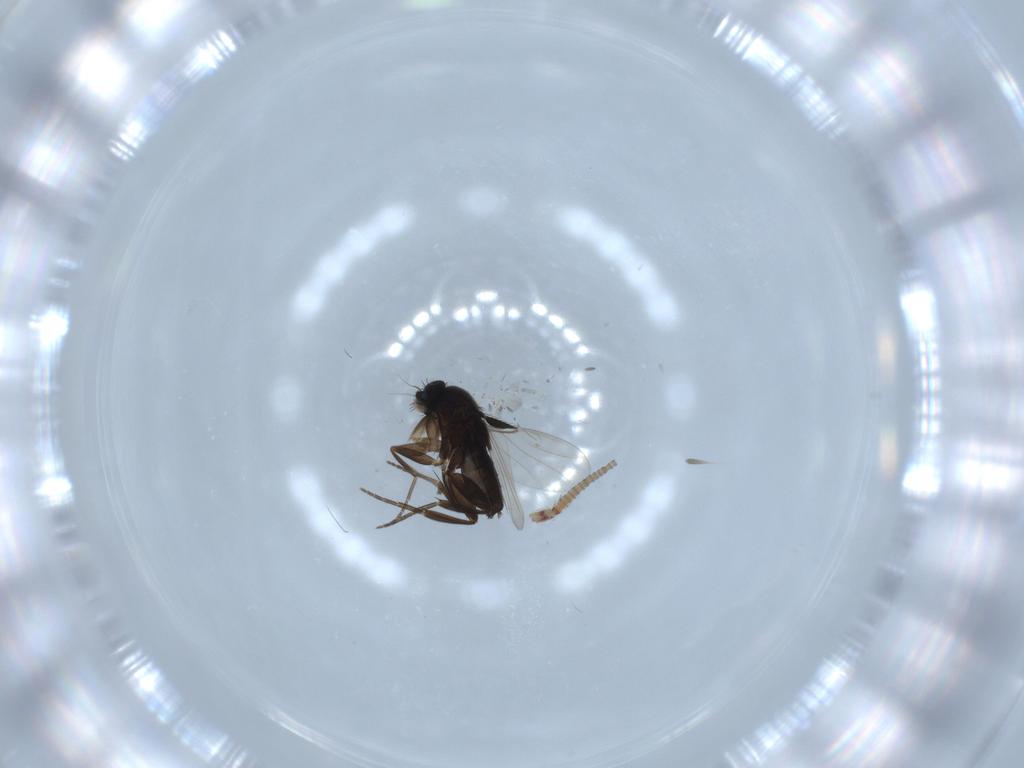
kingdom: Animalia
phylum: Arthropoda
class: Insecta
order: Diptera
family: Phoridae
